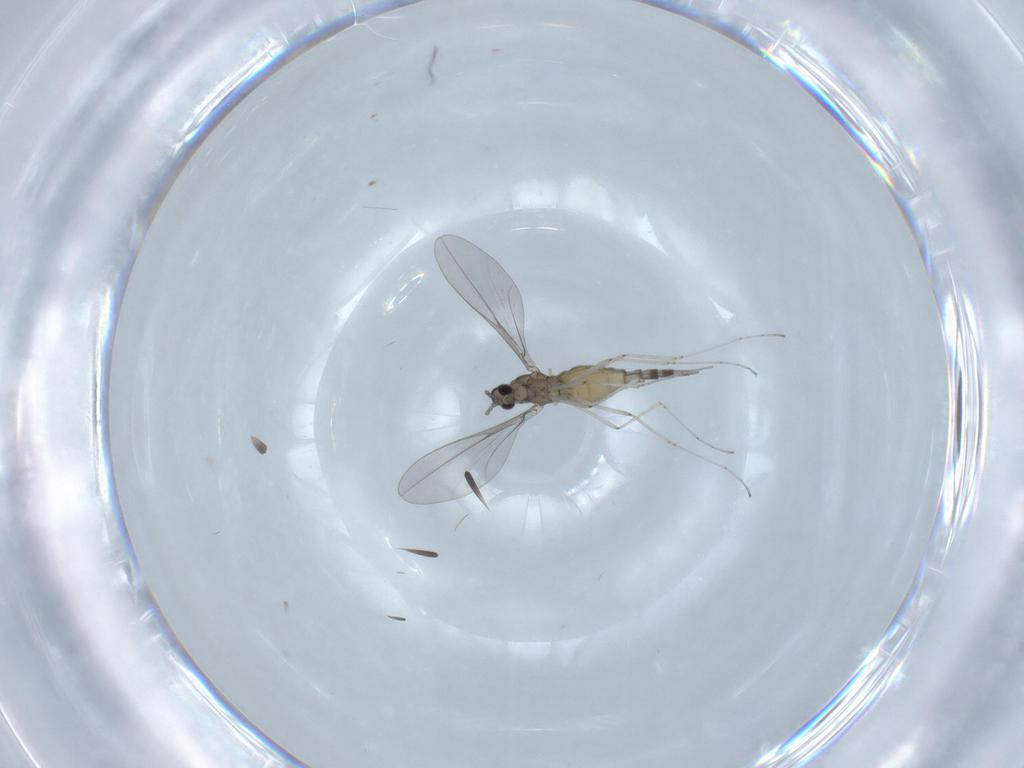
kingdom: Animalia
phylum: Arthropoda
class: Insecta
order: Diptera
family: Cecidomyiidae
